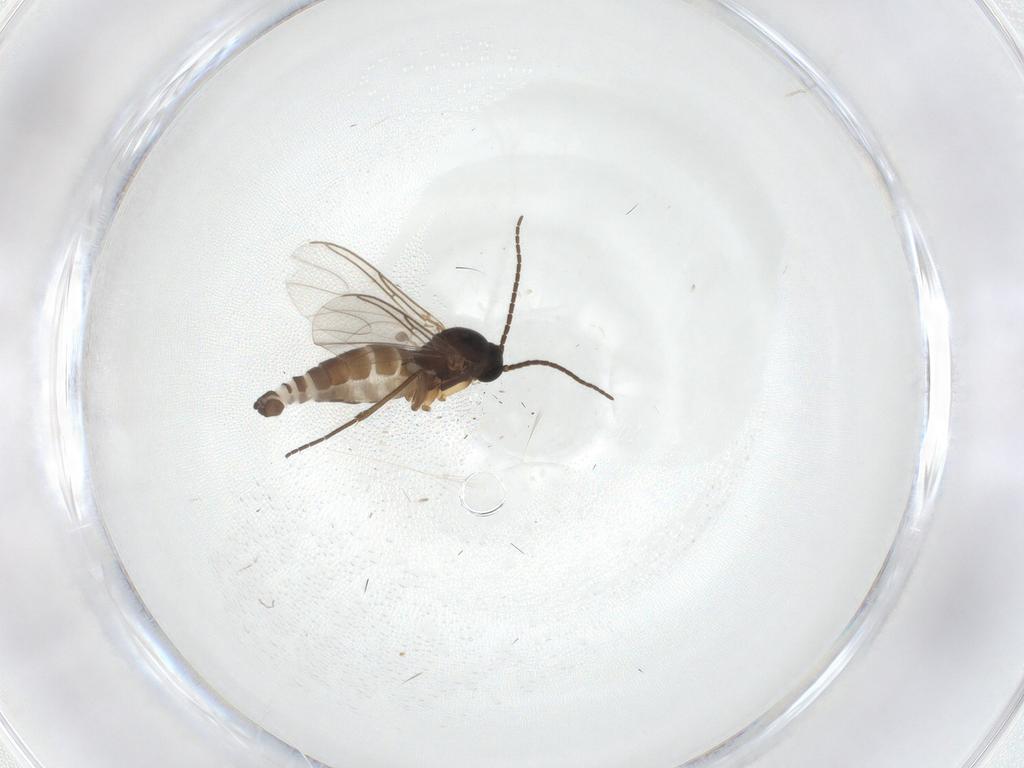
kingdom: Animalia
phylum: Arthropoda
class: Insecta
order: Diptera
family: Sciaridae
